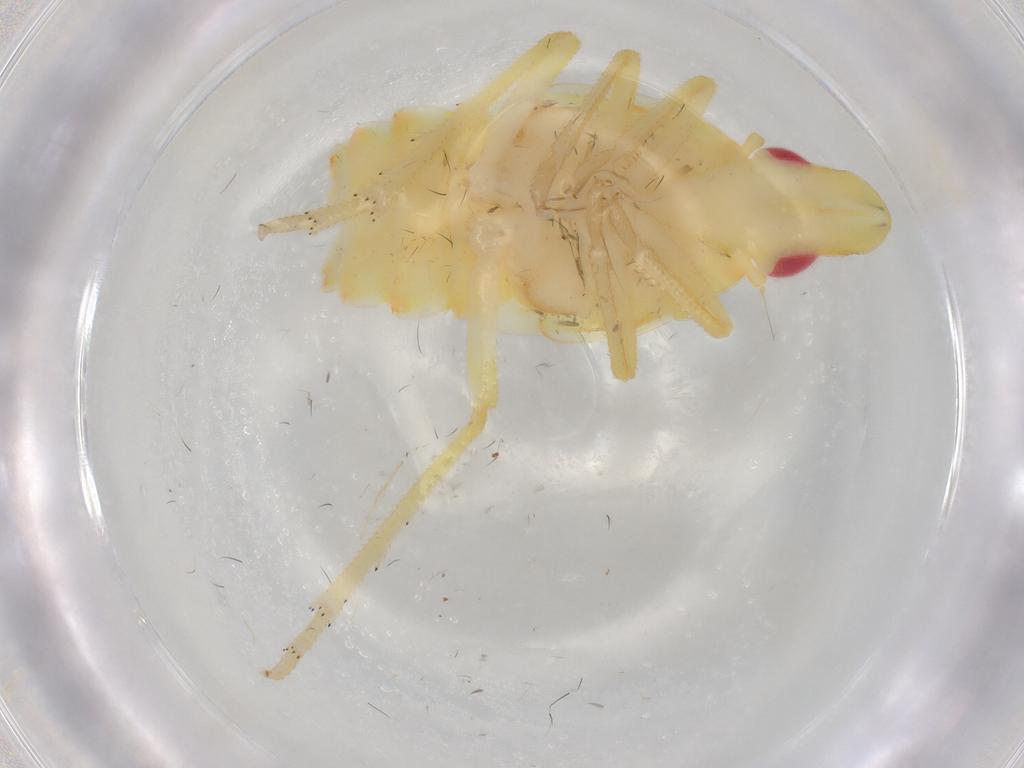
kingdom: Animalia
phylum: Arthropoda
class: Insecta
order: Hemiptera
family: Tropiduchidae
